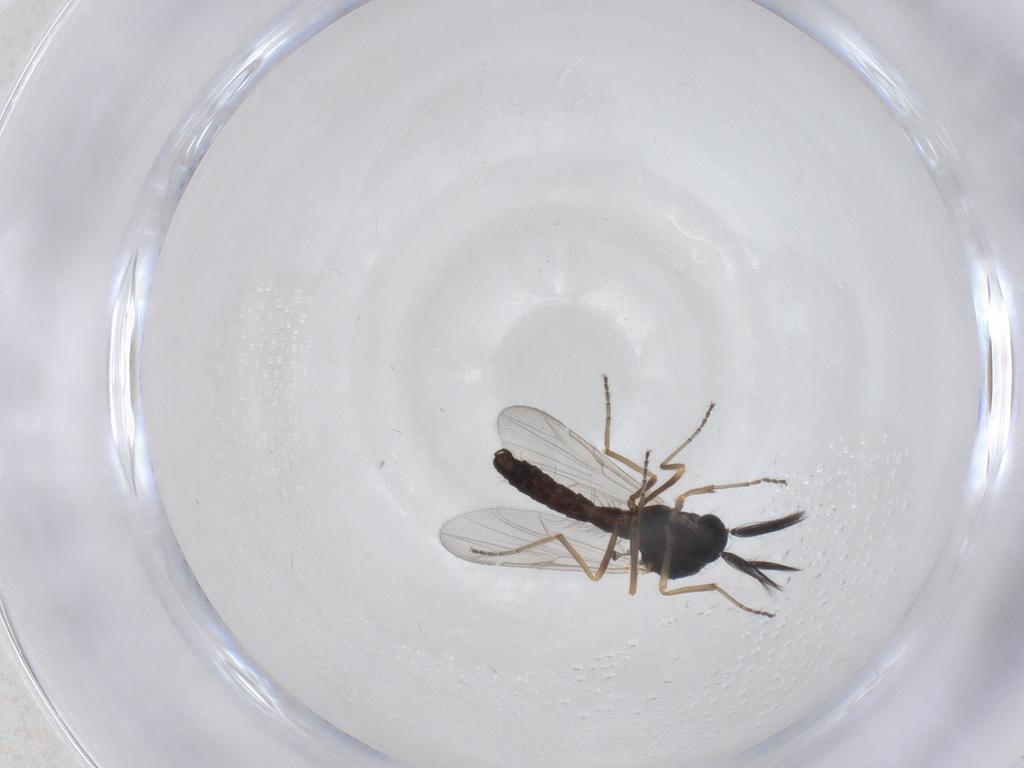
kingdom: Animalia
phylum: Arthropoda
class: Insecta
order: Diptera
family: Ceratopogonidae
